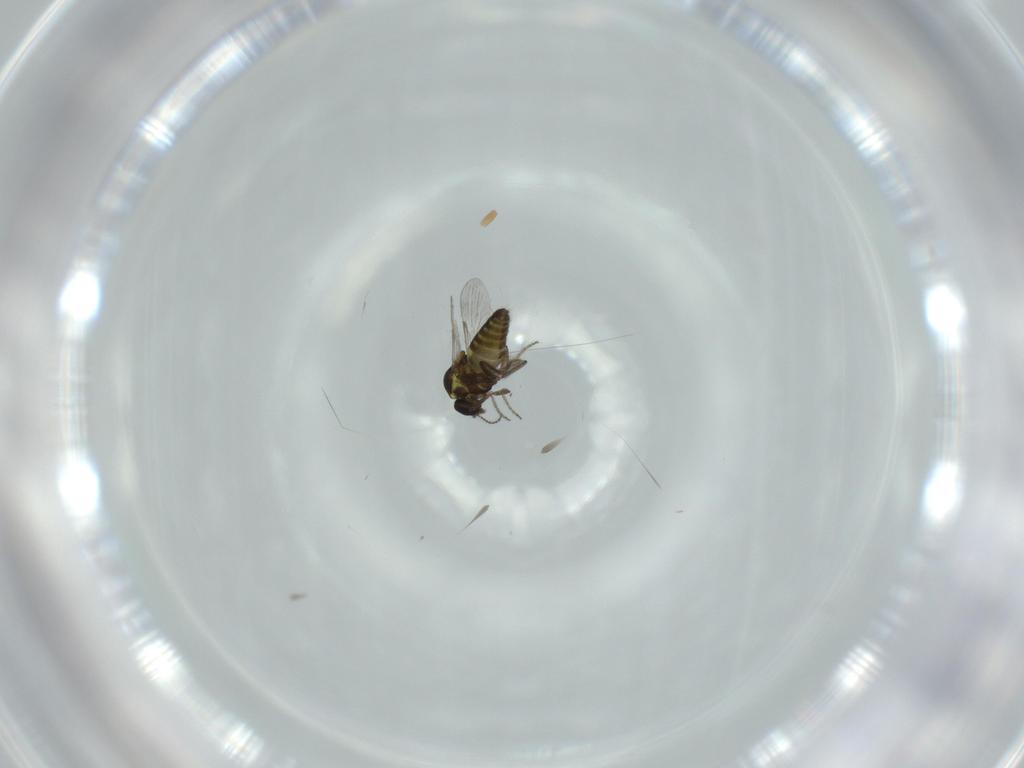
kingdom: Animalia
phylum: Arthropoda
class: Insecta
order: Diptera
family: Ceratopogonidae
